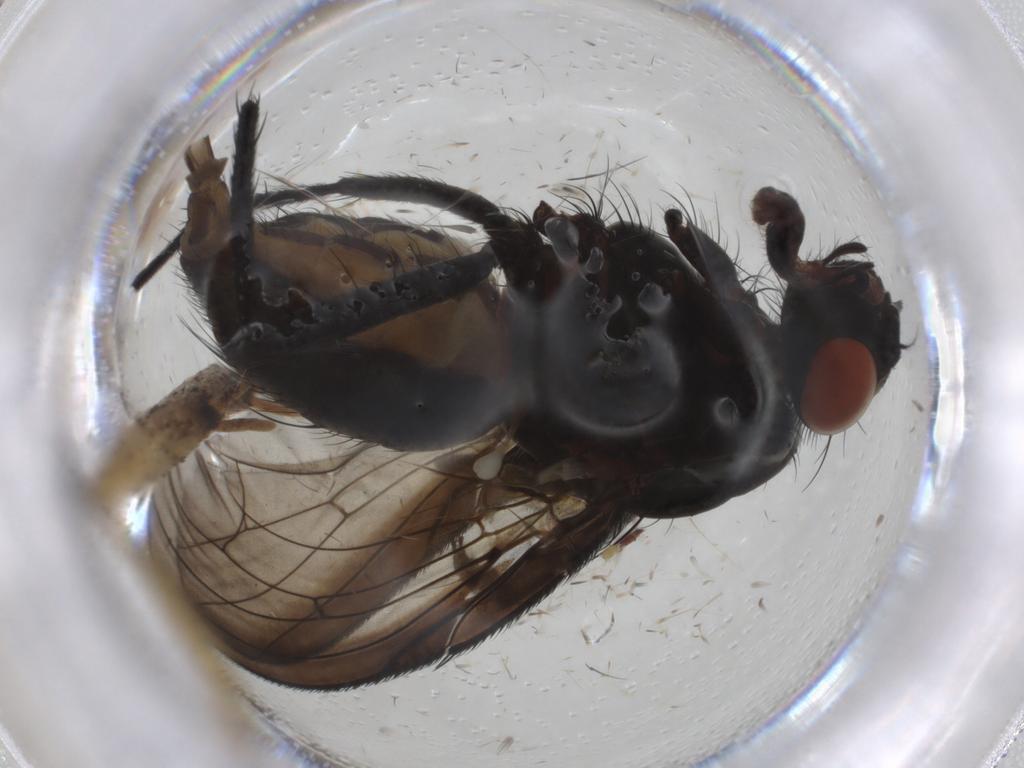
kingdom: Animalia
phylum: Arthropoda
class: Insecta
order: Diptera
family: Anthomyiidae
